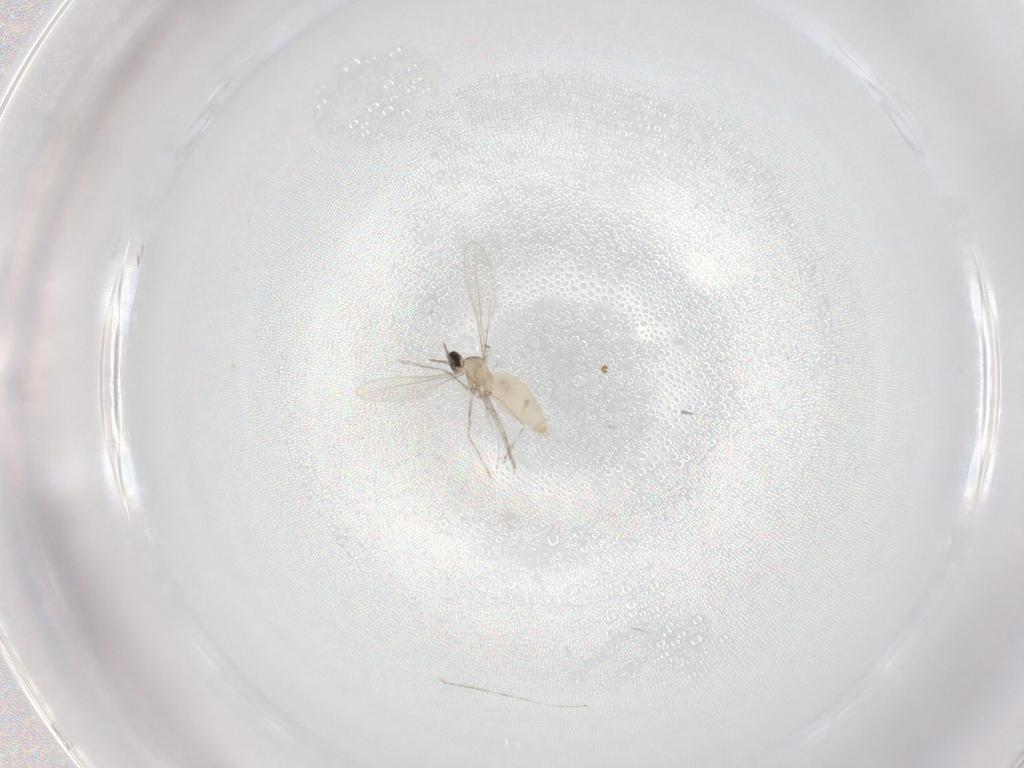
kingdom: Animalia
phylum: Arthropoda
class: Insecta
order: Diptera
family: Cecidomyiidae
